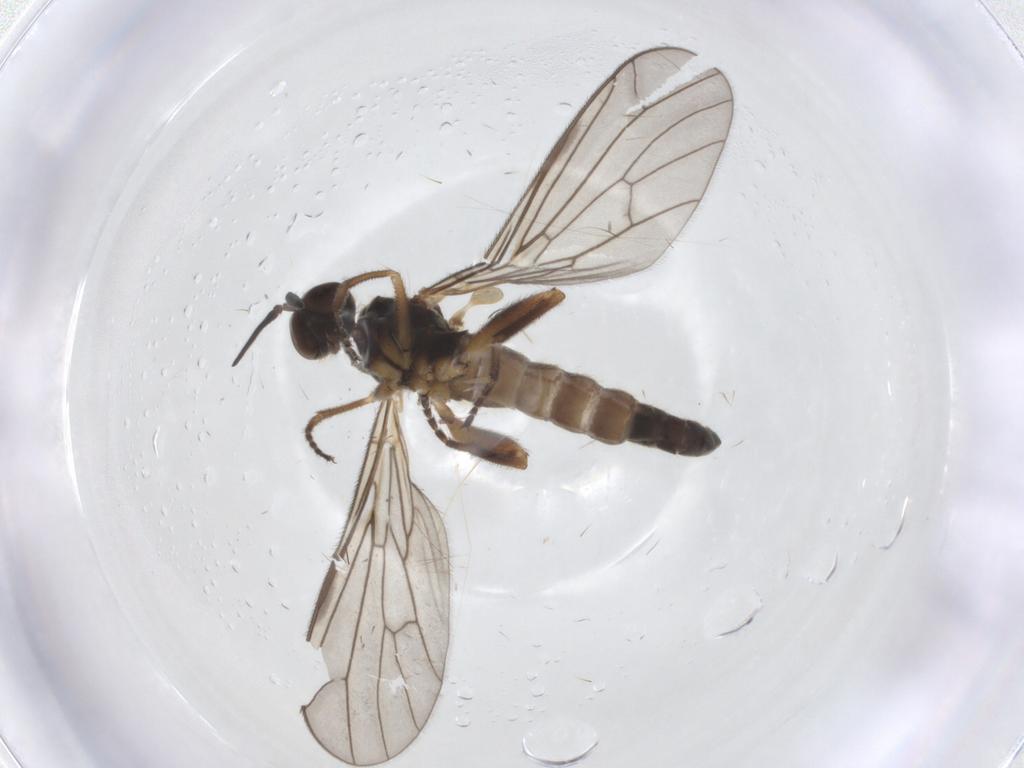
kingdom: Animalia
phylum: Arthropoda
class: Insecta
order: Diptera
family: Empididae
